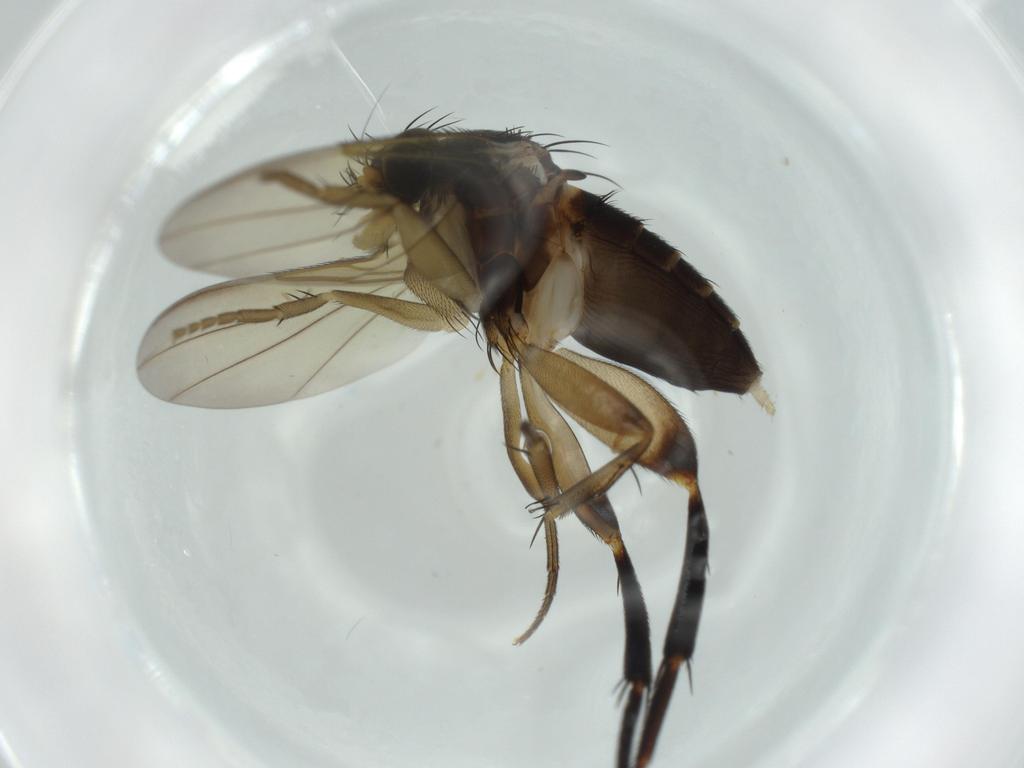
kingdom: Animalia
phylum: Arthropoda
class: Insecta
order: Diptera
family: Phoridae
